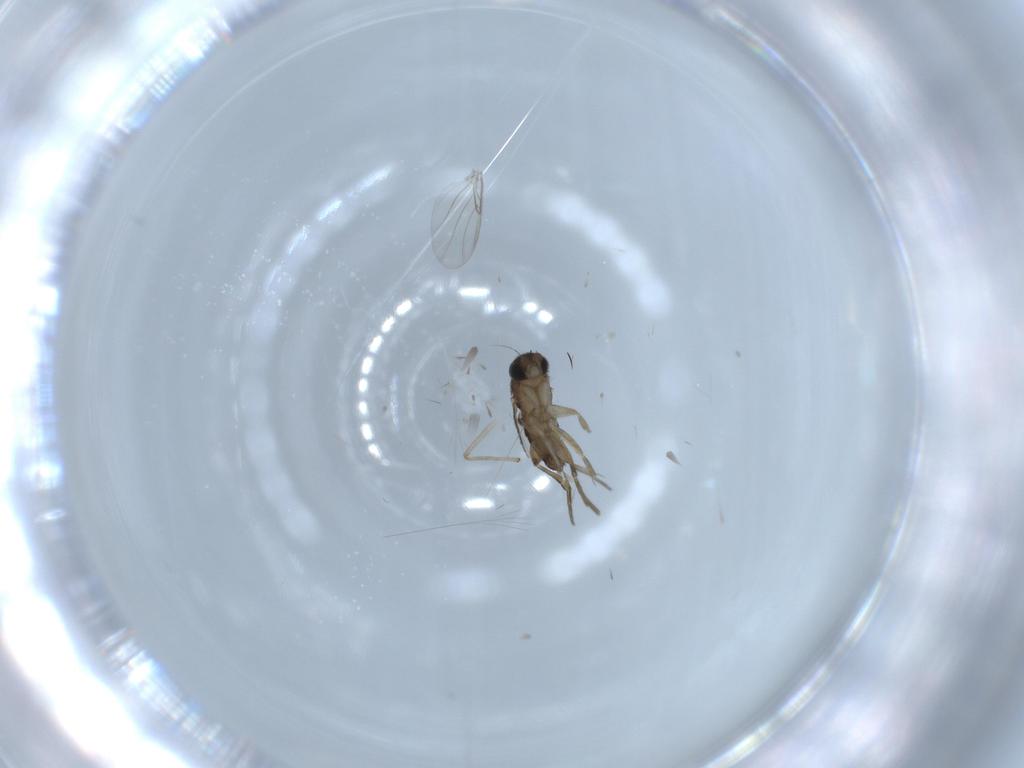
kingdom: Animalia
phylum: Arthropoda
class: Insecta
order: Diptera
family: Phoridae
